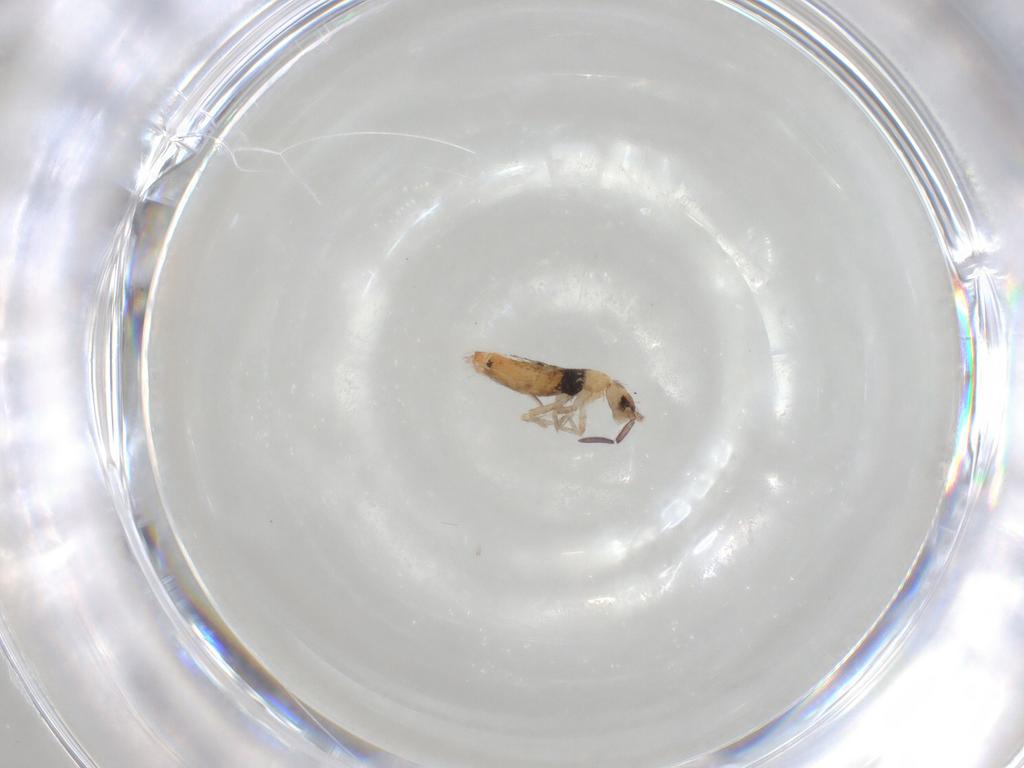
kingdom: Animalia
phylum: Arthropoda
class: Collembola
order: Entomobryomorpha
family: Entomobryidae
